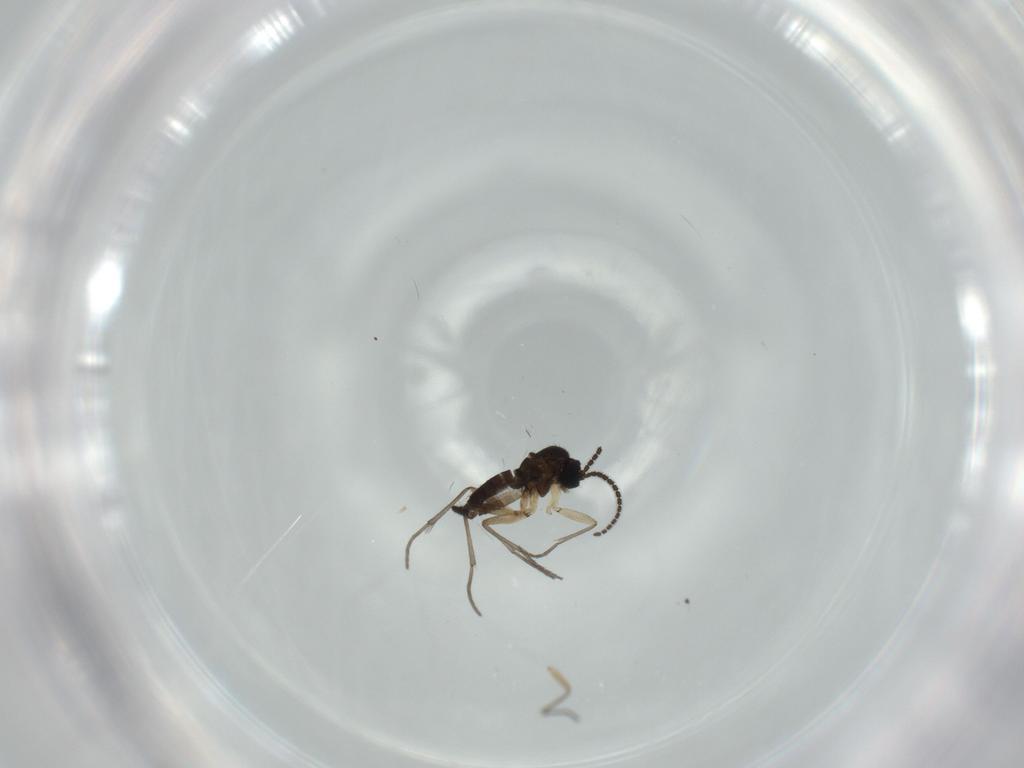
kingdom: Animalia
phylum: Arthropoda
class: Insecta
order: Diptera
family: Sciaridae
